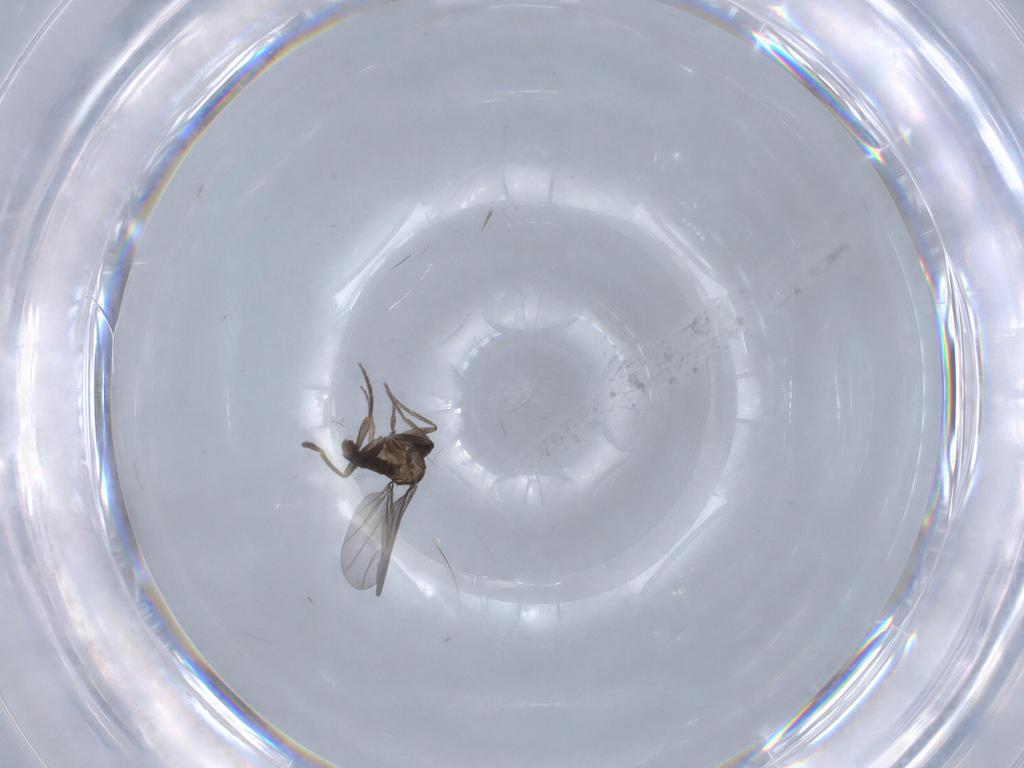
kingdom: Animalia
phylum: Arthropoda
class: Insecta
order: Diptera
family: Phoridae
